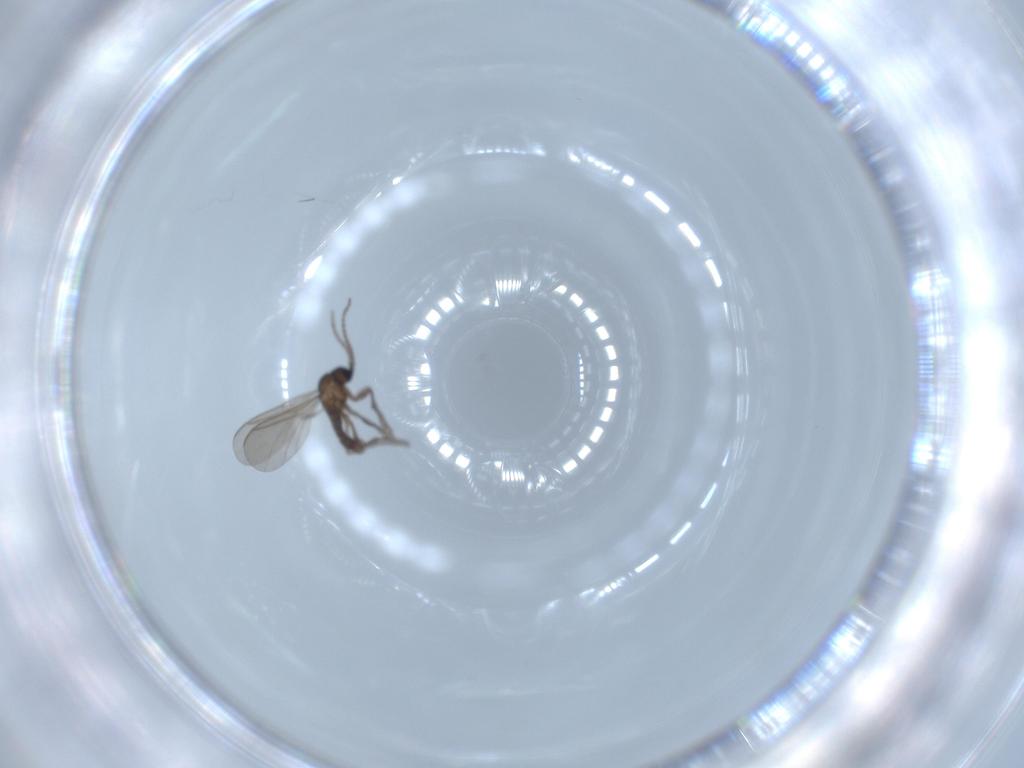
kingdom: Animalia
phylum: Arthropoda
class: Insecta
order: Diptera
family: Sciaridae
